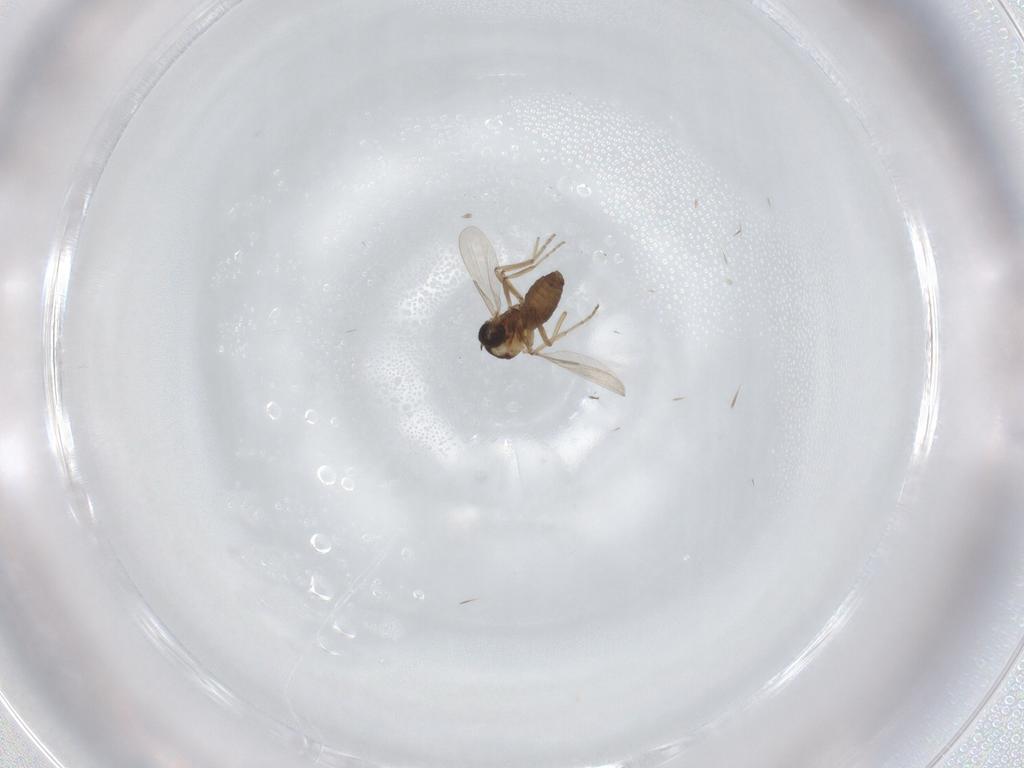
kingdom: Animalia
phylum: Arthropoda
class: Insecta
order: Diptera
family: Ceratopogonidae
